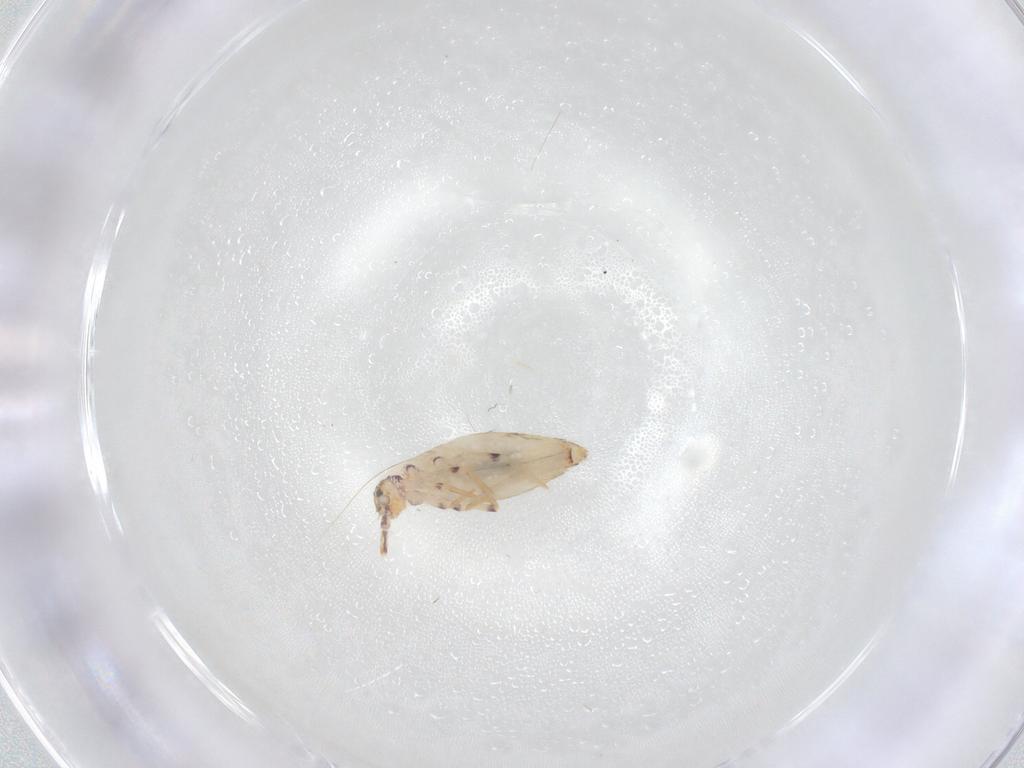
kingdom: Animalia
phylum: Arthropoda
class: Collembola
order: Entomobryomorpha
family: Entomobryidae
